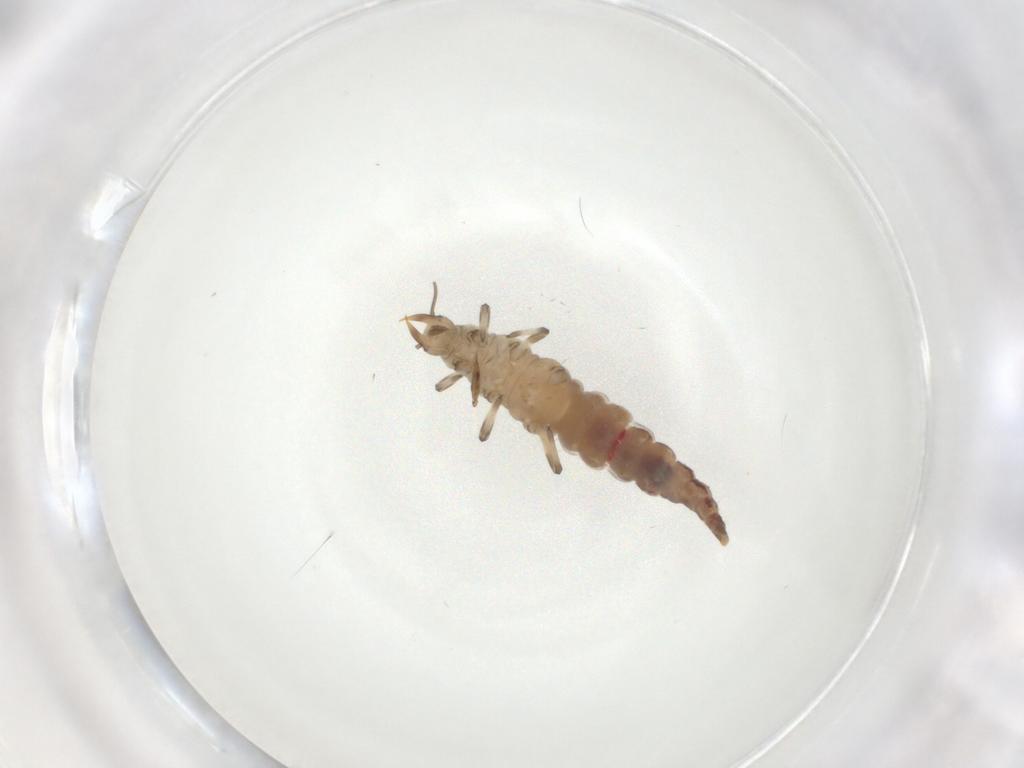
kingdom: Animalia
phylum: Arthropoda
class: Insecta
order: Neuroptera
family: Hemerobiidae
